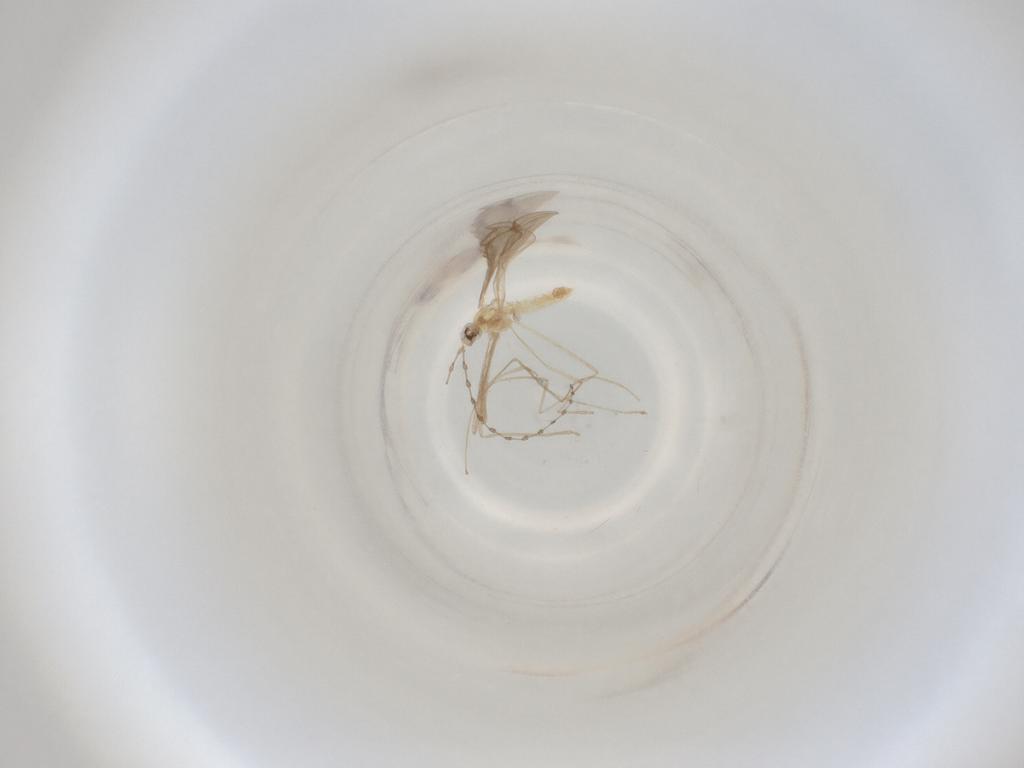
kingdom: Animalia
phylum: Arthropoda
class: Insecta
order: Diptera
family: Cecidomyiidae
